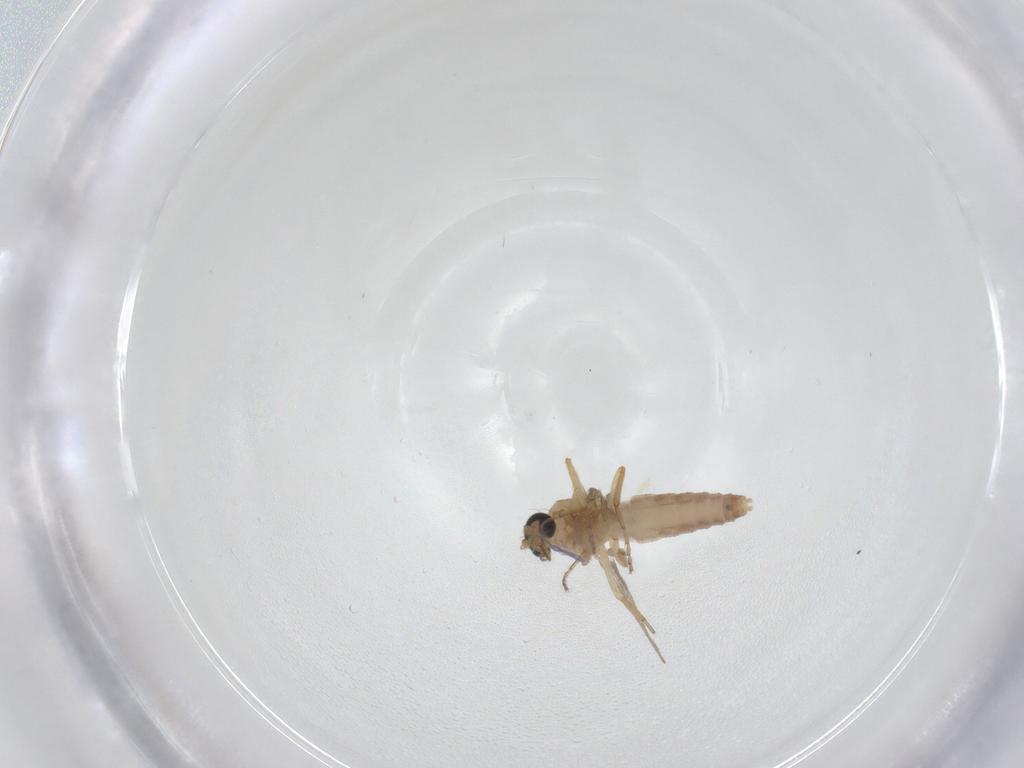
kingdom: Animalia
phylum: Arthropoda
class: Insecta
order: Diptera
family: Ceratopogonidae
